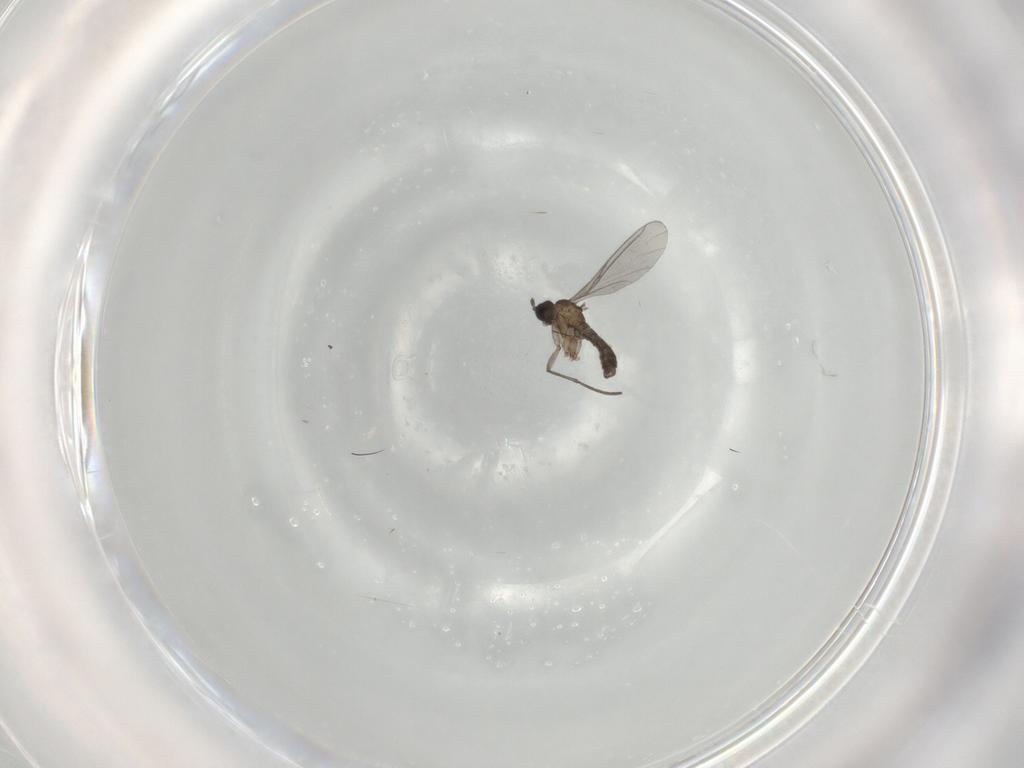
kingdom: Animalia
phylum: Arthropoda
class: Insecta
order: Diptera
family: Sciaridae
